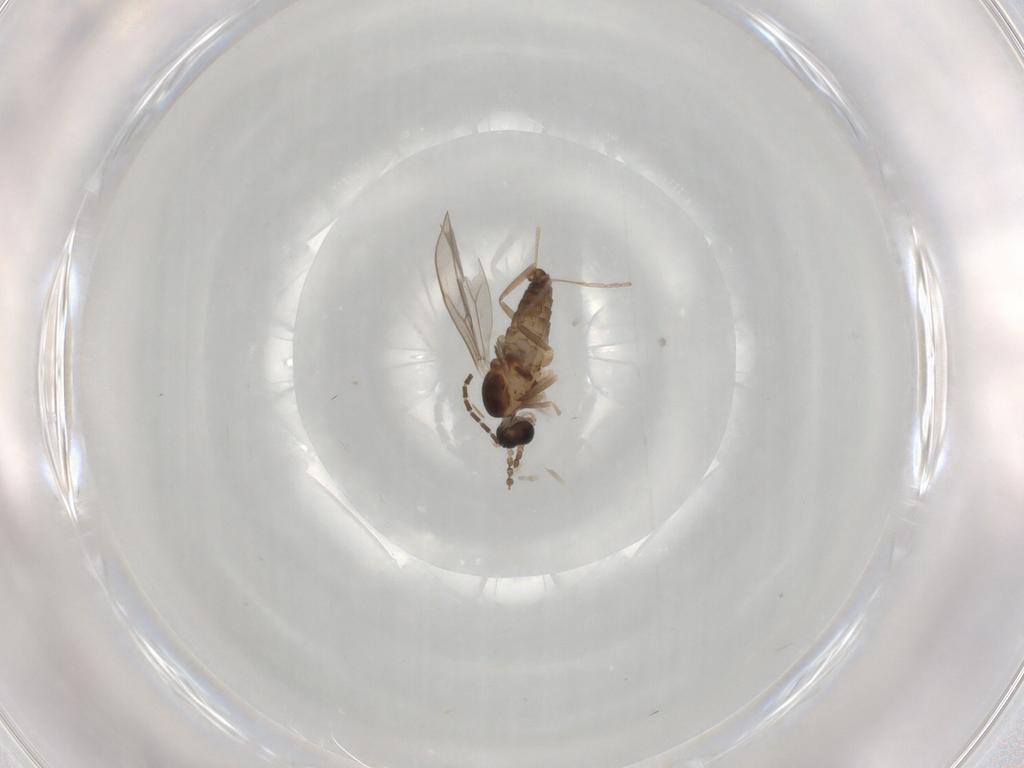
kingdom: Animalia
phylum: Arthropoda
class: Insecta
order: Diptera
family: Sciaridae
